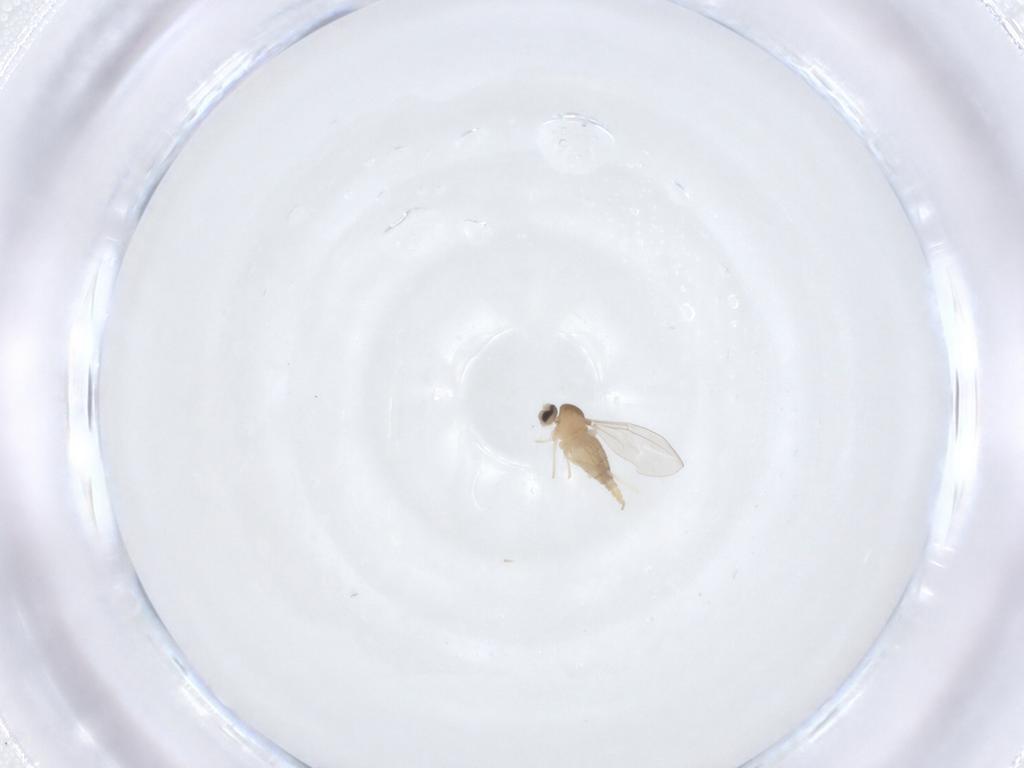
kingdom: Animalia
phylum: Arthropoda
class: Insecta
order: Diptera
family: Cecidomyiidae
